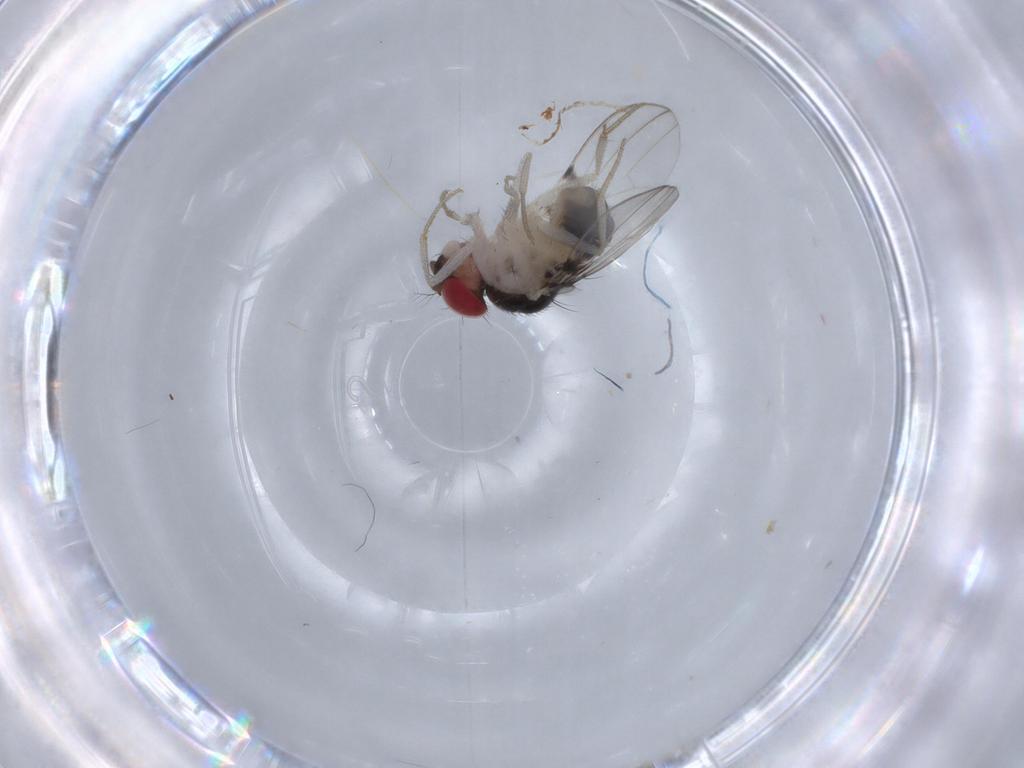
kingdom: Animalia
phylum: Arthropoda
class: Insecta
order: Diptera
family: Drosophilidae
